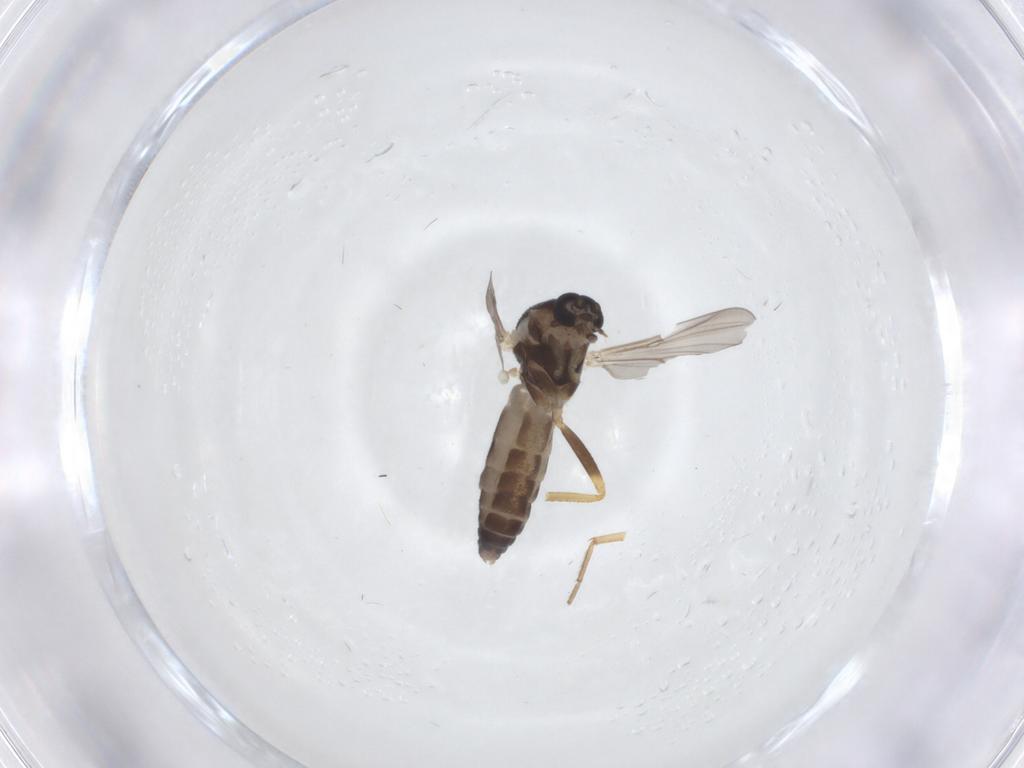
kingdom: Animalia
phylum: Arthropoda
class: Insecta
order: Diptera
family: Ceratopogonidae
